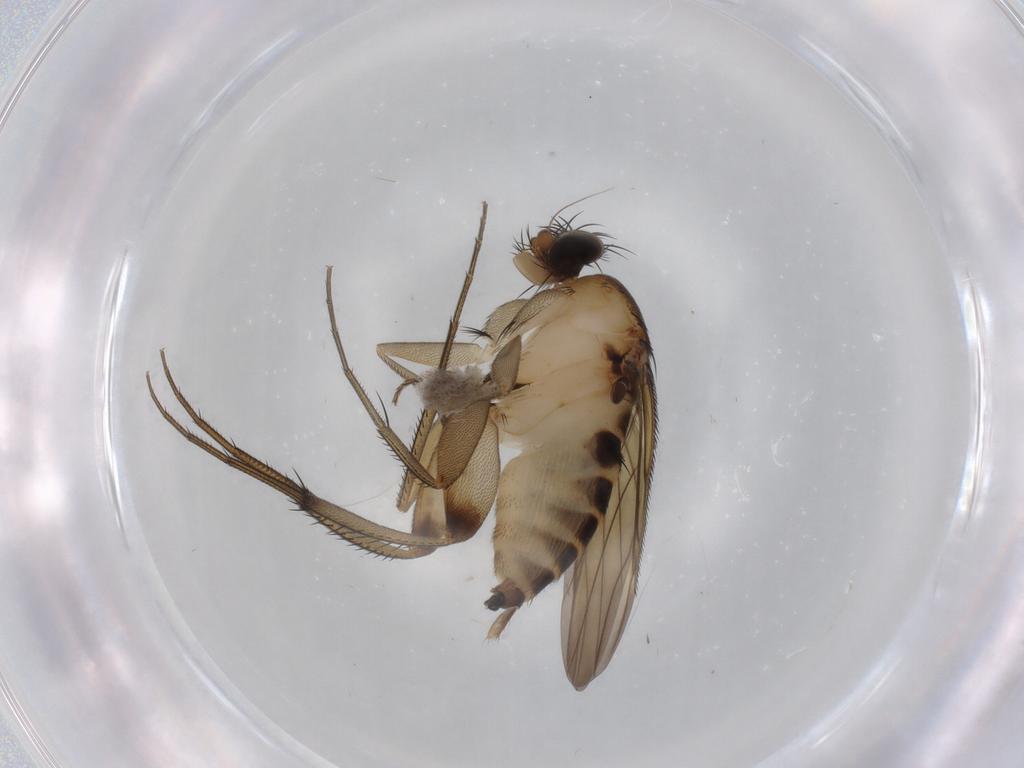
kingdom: Animalia
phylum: Arthropoda
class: Insecta
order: Diptera
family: Phoridae
